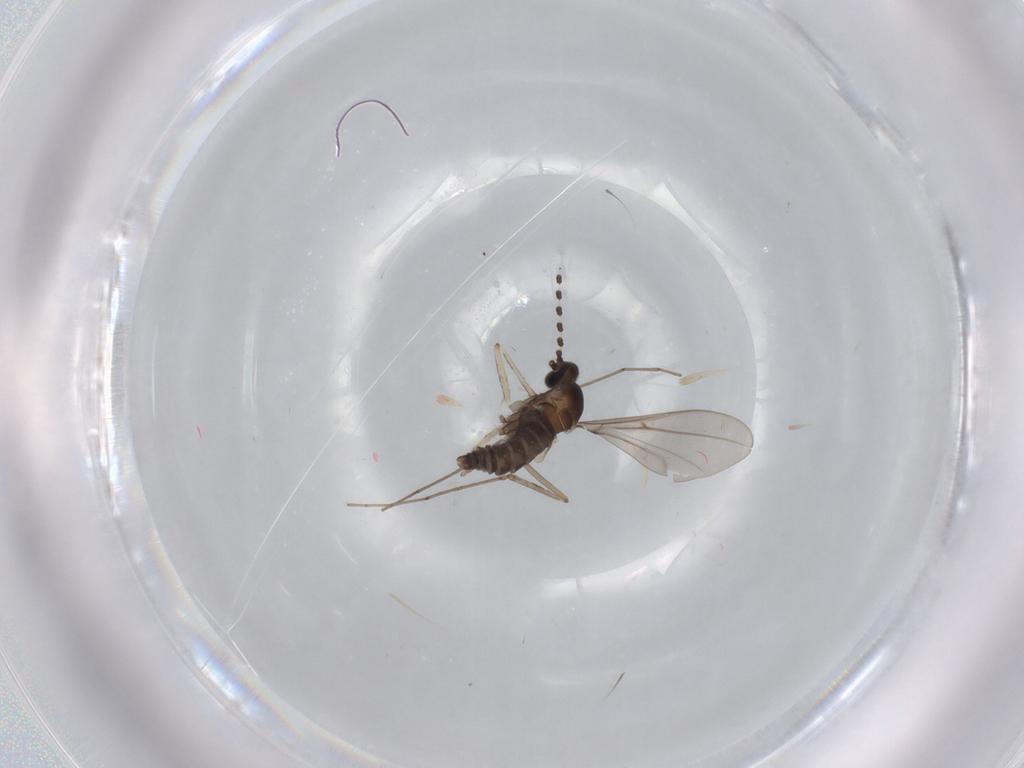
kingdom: Animalia
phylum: Arthropoda
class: Insecta
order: Diptera
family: Cecidomyiidae
